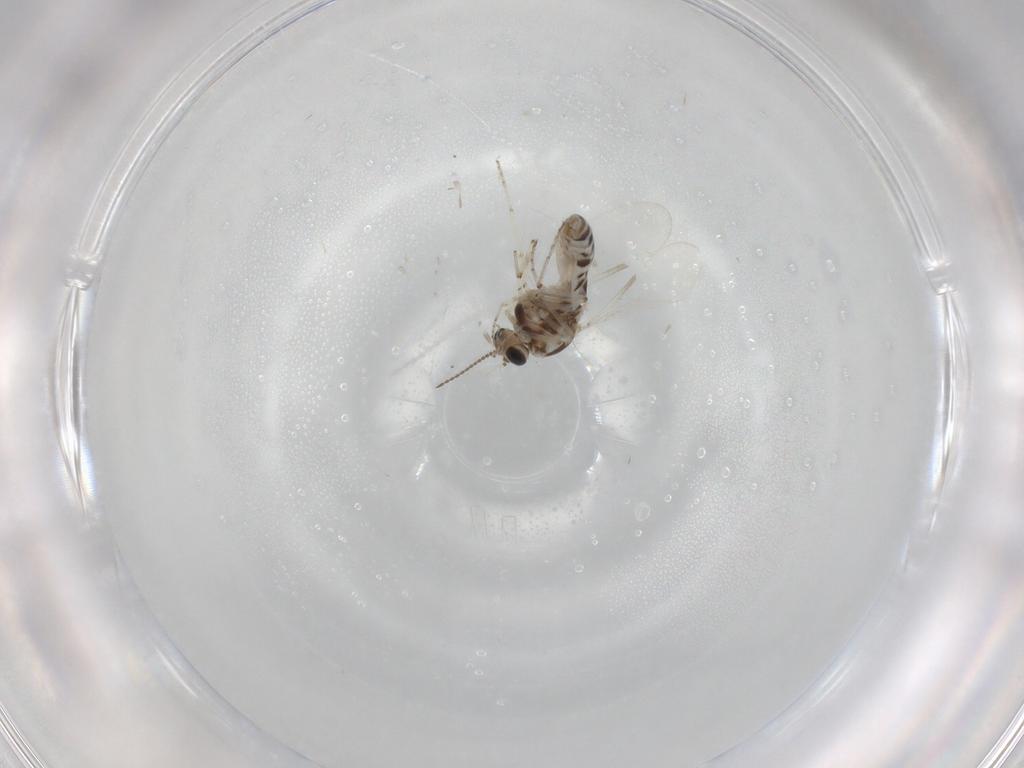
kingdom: Animalia
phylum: Arthropoda
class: Insecta
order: Diptera
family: Ceratopogonidae
